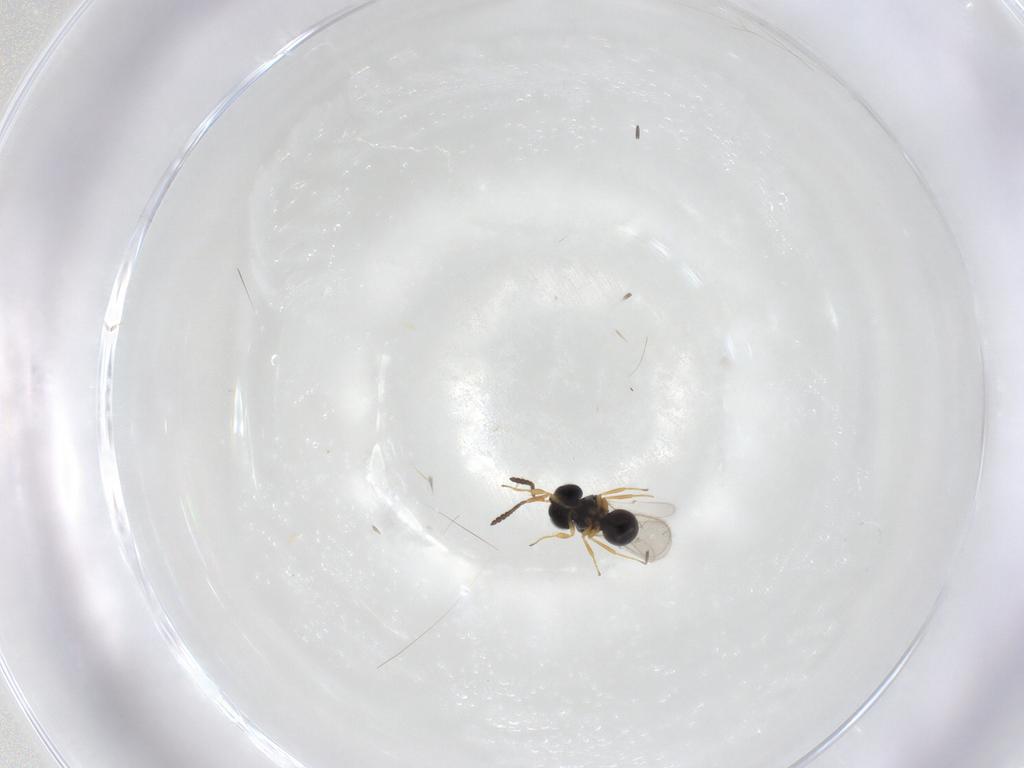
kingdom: Animalia
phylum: Arthropoda
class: Insecta
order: Hymenoptera
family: Scelionidae
